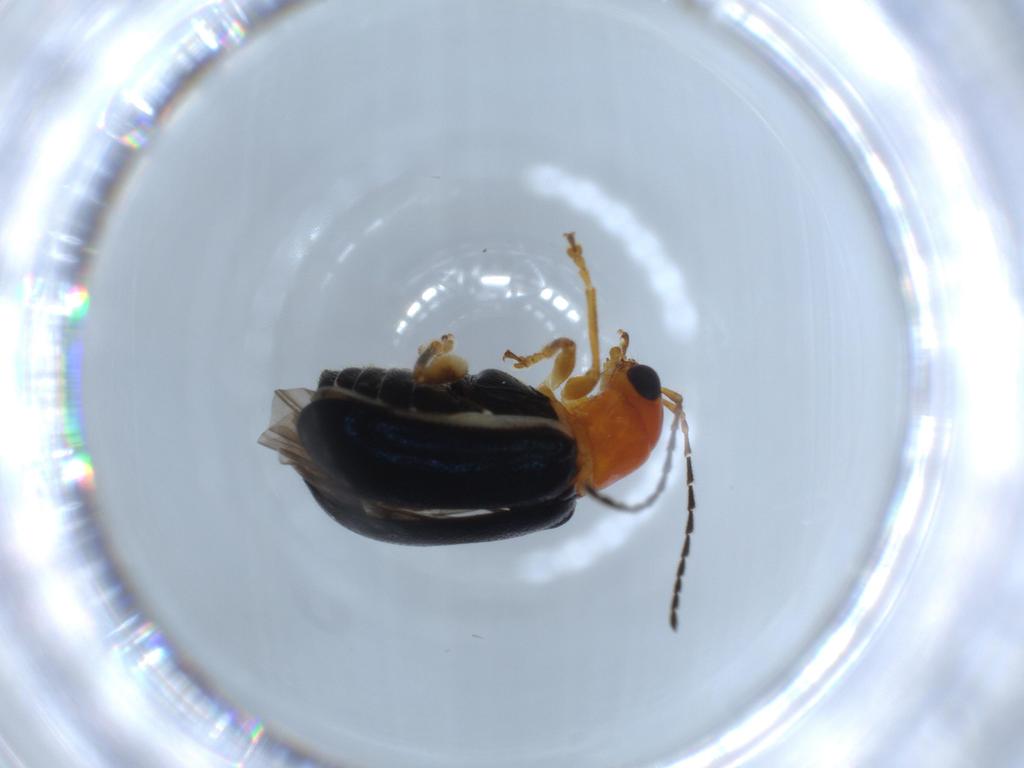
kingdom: Animalia
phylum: Arthropoda
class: Insecta
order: Coleoptera
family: Chrysomelidae
